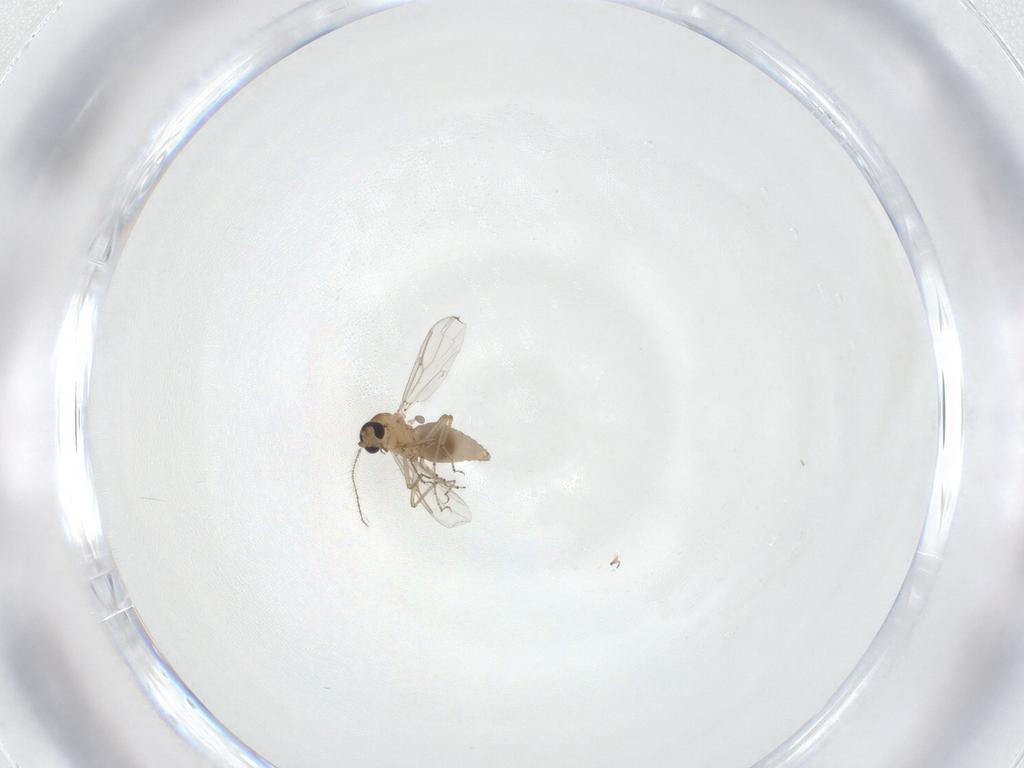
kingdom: Animalia
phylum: Arthropoda
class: Insecta
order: Diptera
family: Ceratopogonidae
